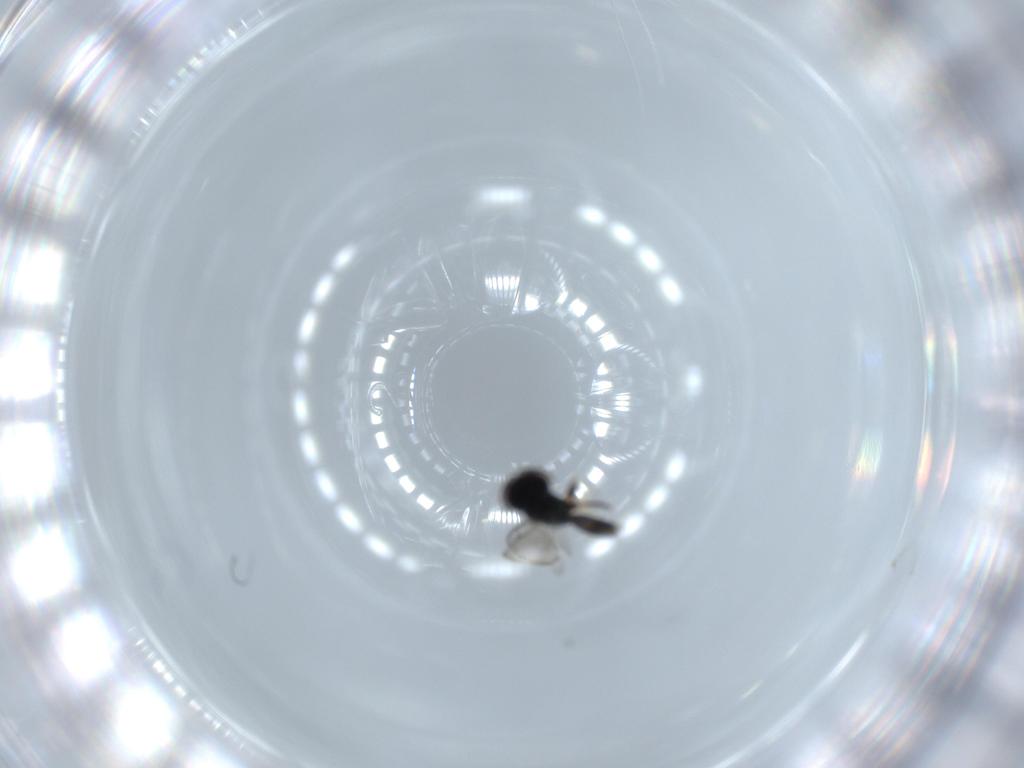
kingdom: Animalia
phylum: Arthropoda
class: Insecta
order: Hymenoptera
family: Pteromalidae
